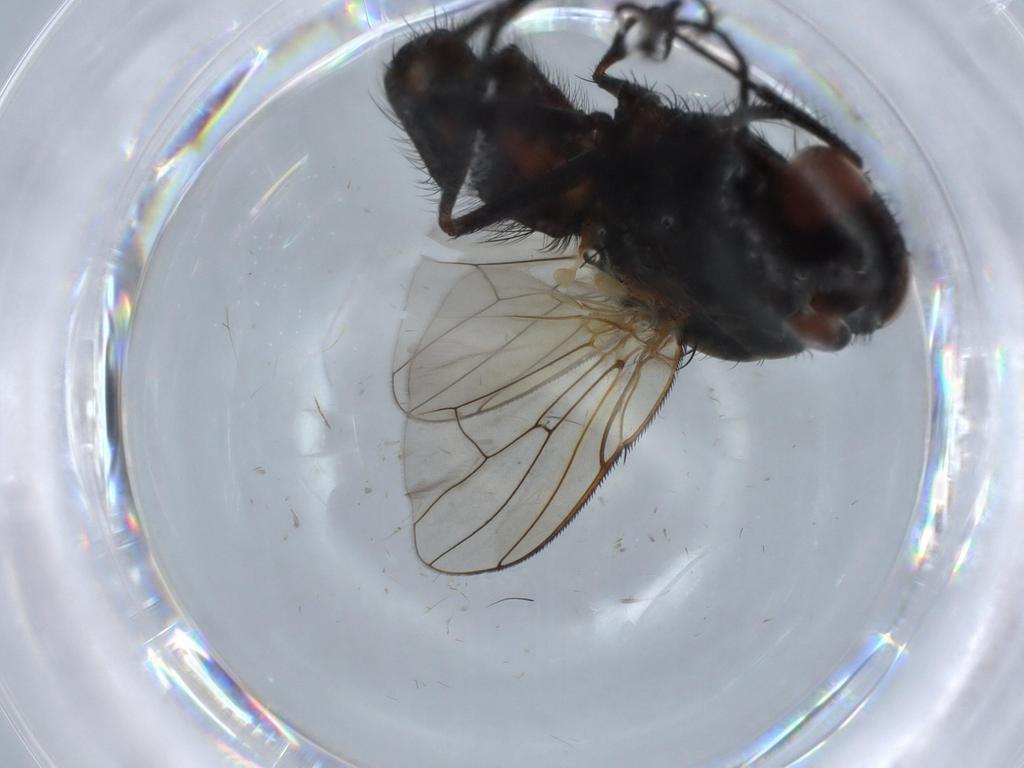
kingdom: Animalia
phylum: Arthropoda
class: Insecta
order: Diptera
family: Anthomyiidae
